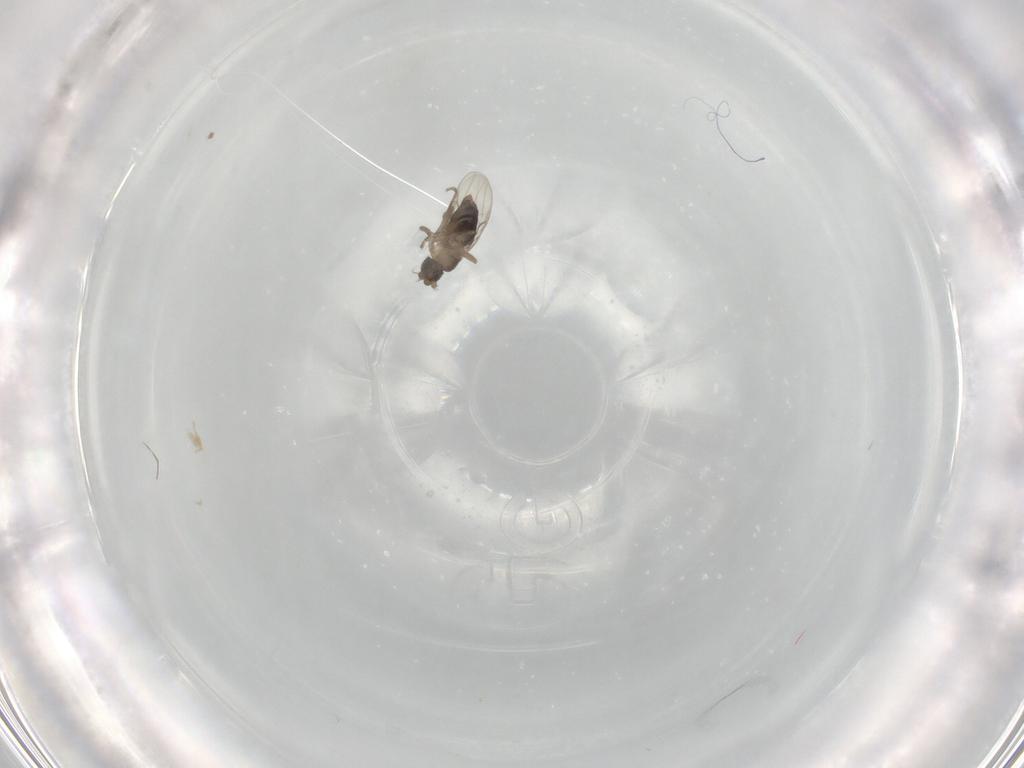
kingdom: Animalia
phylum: Arthropoda
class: Insecta
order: Diptera
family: Phoridae
